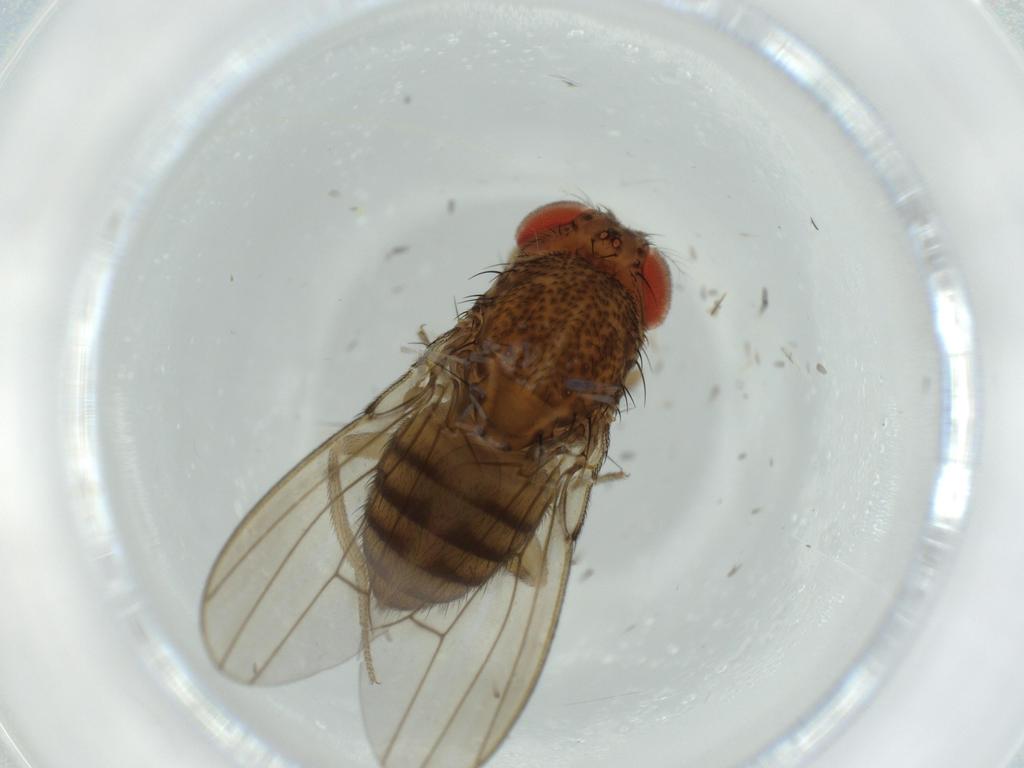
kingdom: Animalia
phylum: Arthropoda
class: Insecta
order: Diptera
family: Drosophilidae
